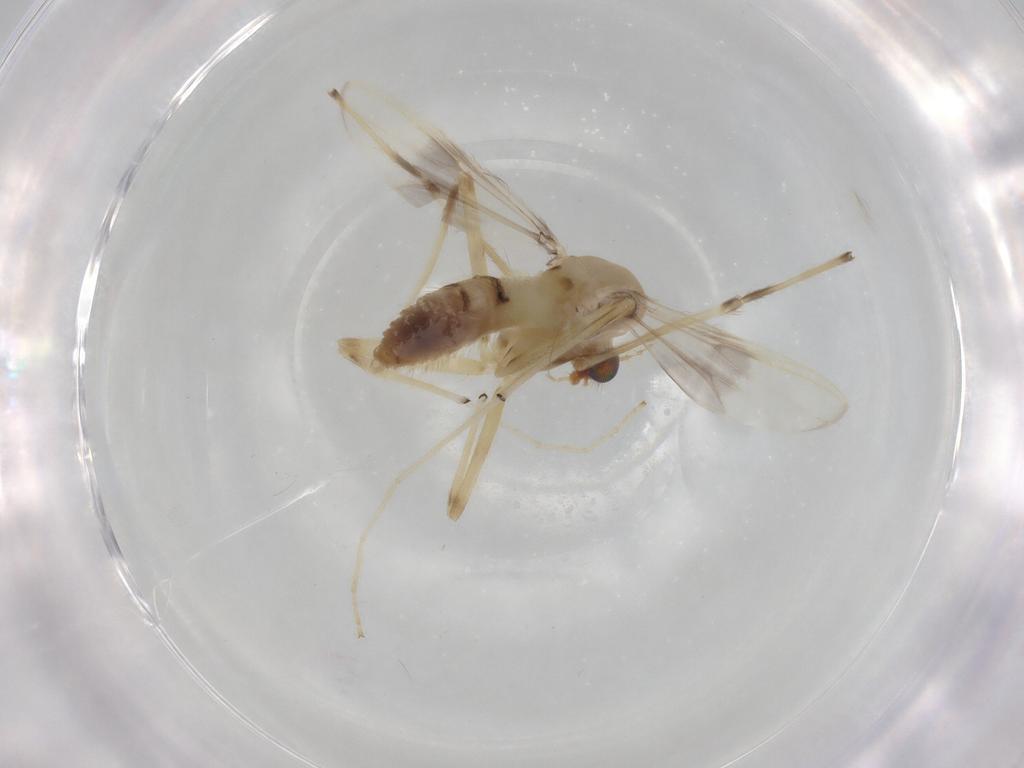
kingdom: Animalia
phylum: Arthropoda
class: Insecta
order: Diptera
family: Chironomidae
